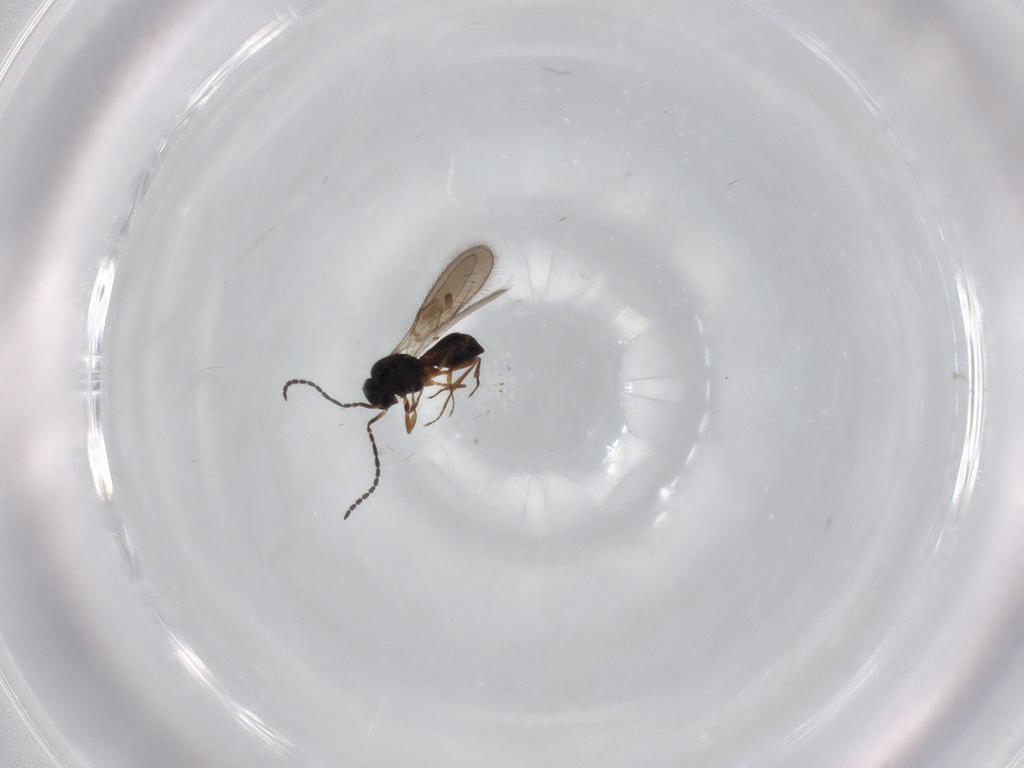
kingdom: Animalia
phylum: Arthropoda
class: Insecta
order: Hymenoptera
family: Scelionidae
